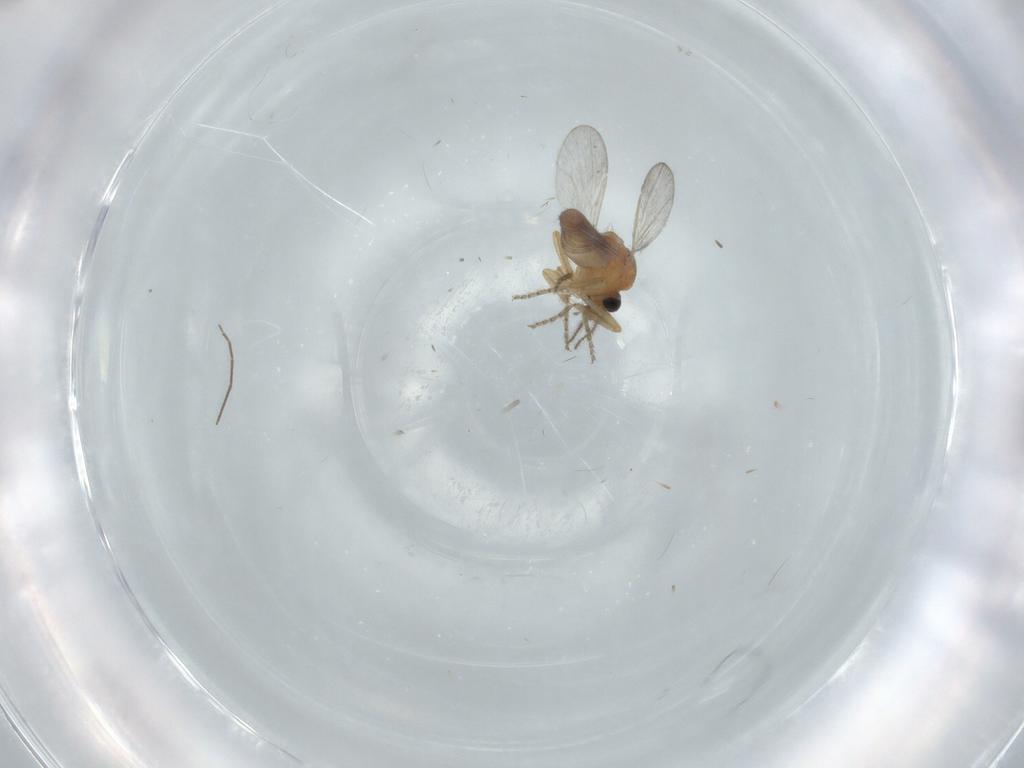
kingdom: Animalia
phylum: Arthropoda
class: Insecta
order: Diptera
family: Ceratopogonidae
